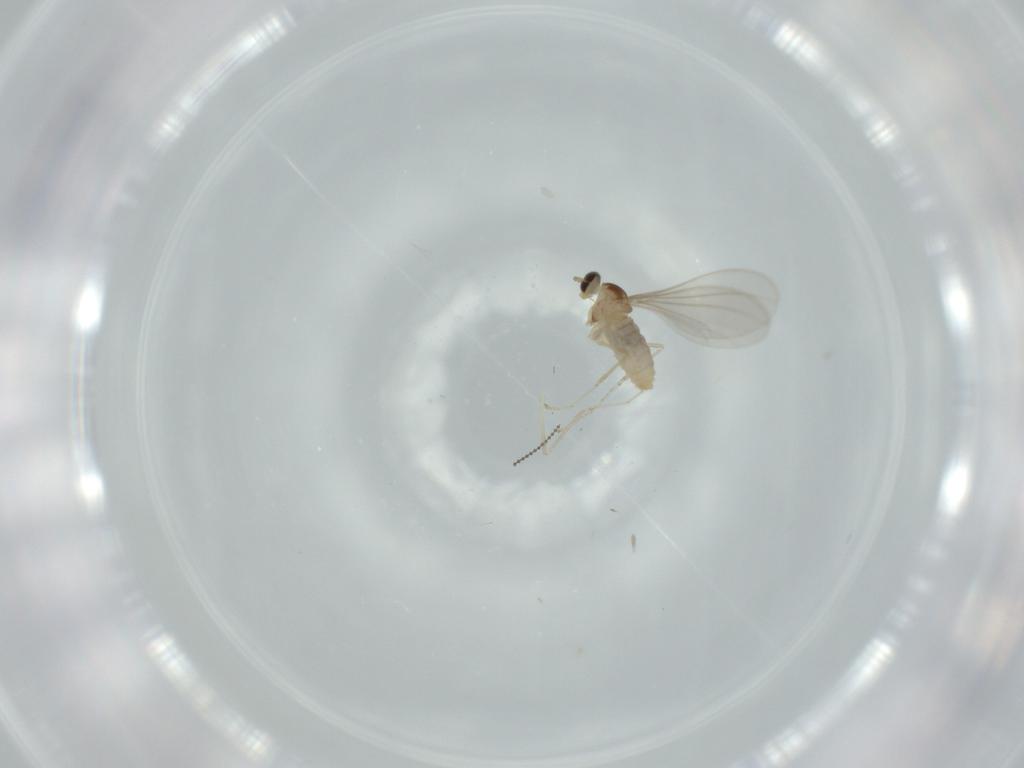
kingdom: Animalia
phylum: Arthropoda
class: Insecta
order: Diptera
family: Cecidomyiidae
